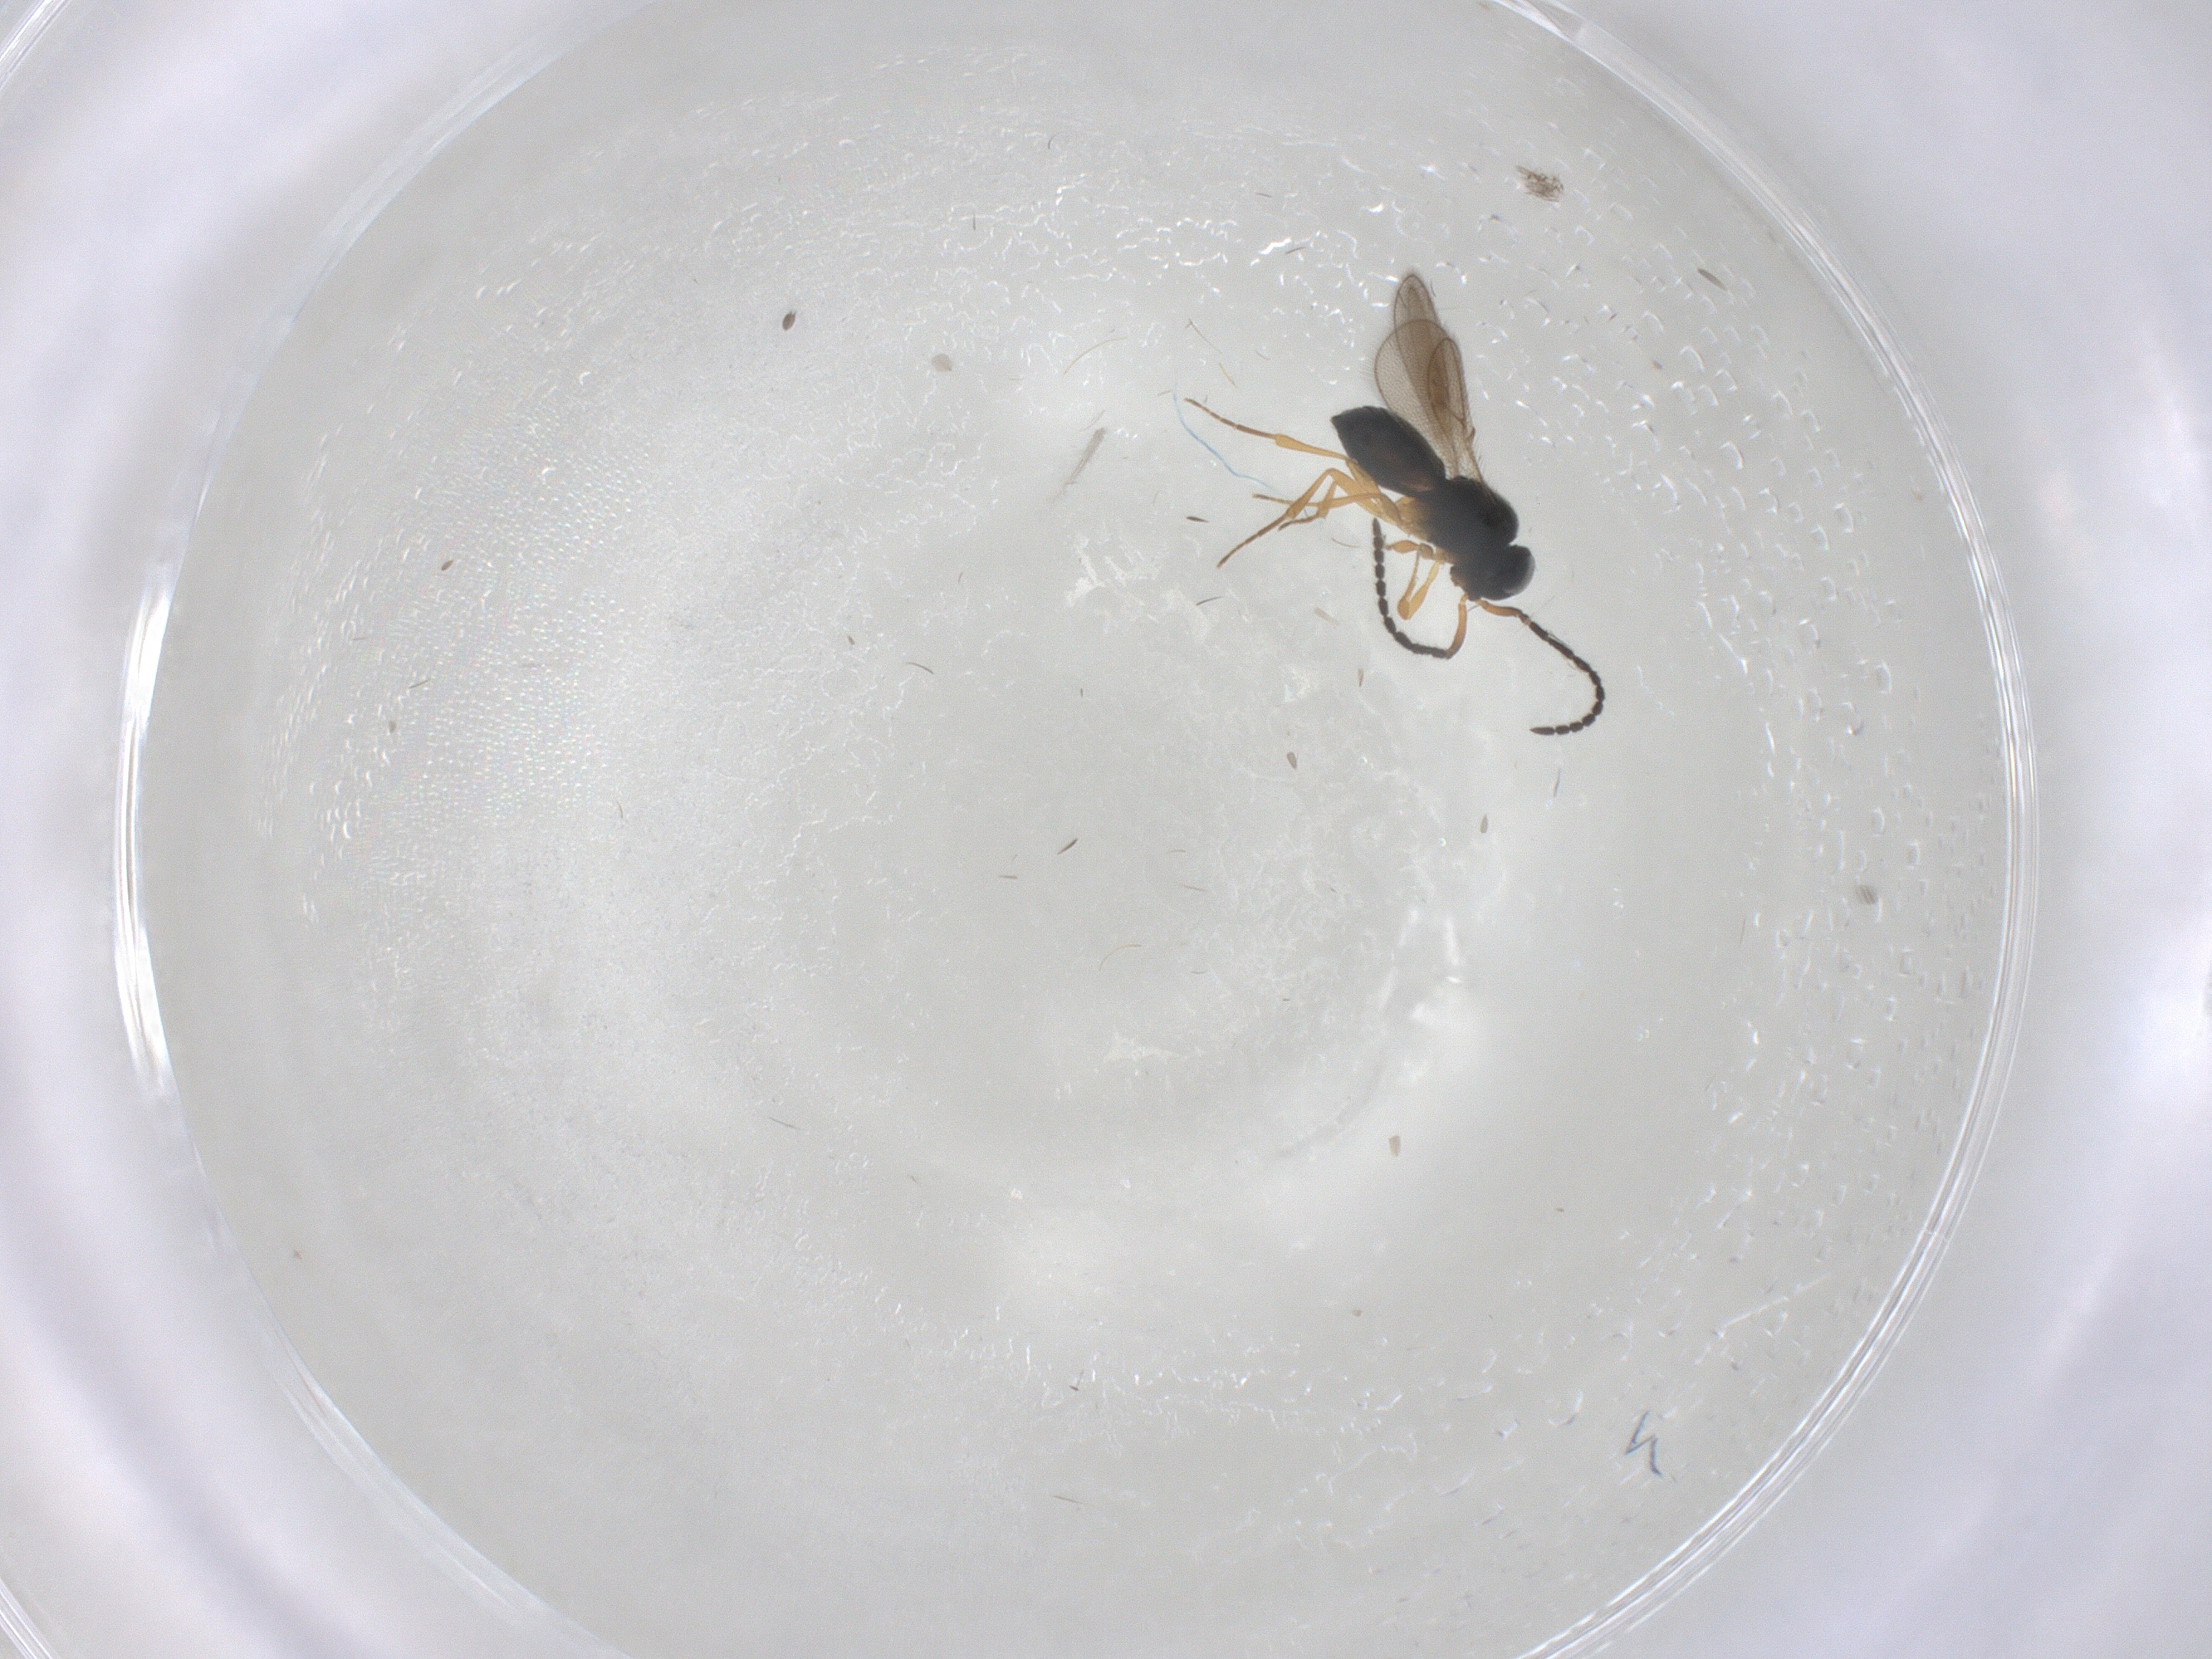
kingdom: Animalia
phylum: Arthropoda
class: Insecta
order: Hymenoptera
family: Scelionidae
